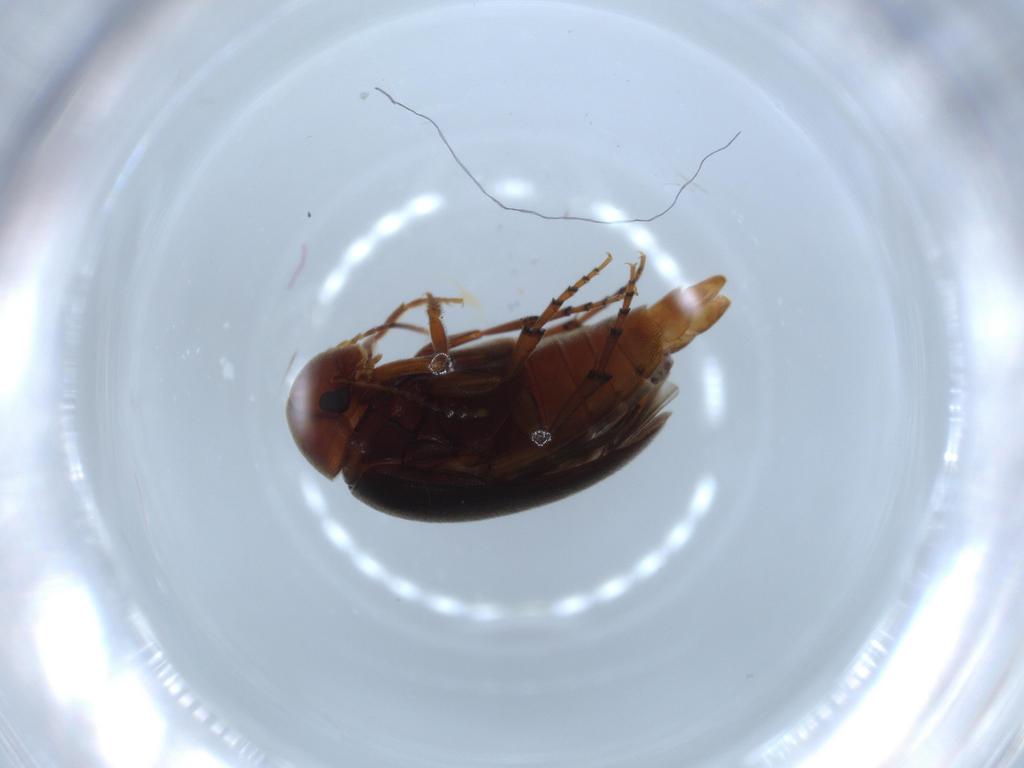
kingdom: Animalia
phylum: Arthropoda
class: Insecta
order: Coleoptera
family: Eucinetidae
